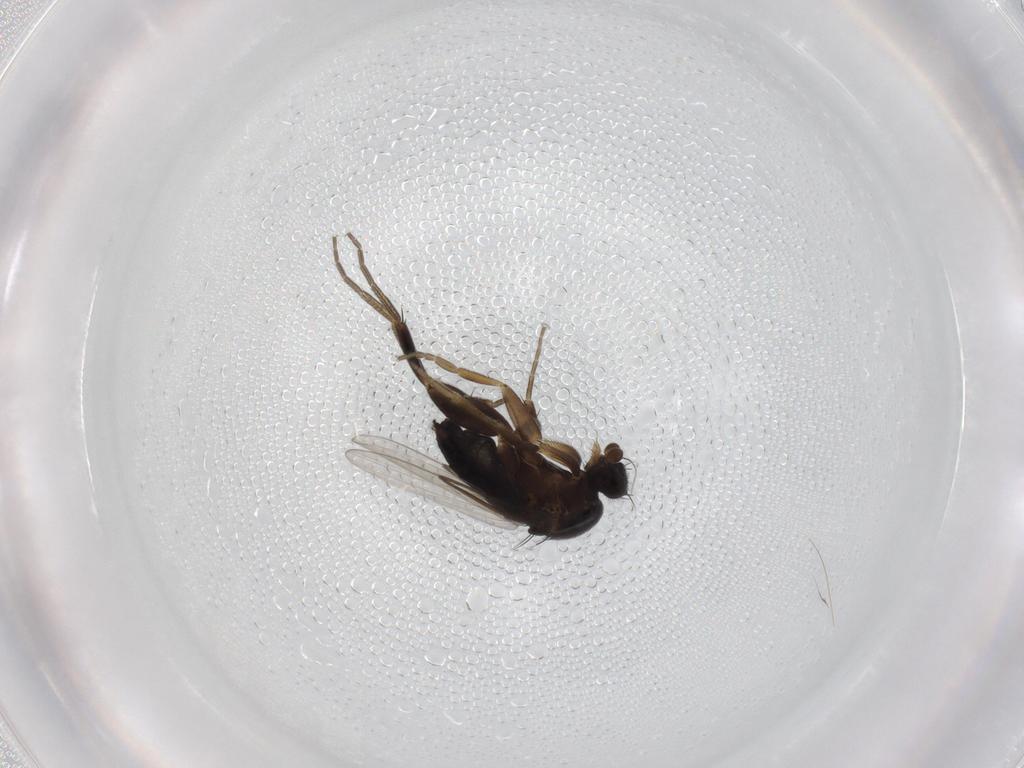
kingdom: Animalia
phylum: Arthropoda
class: Insecta
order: Diptera
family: Phoridae
